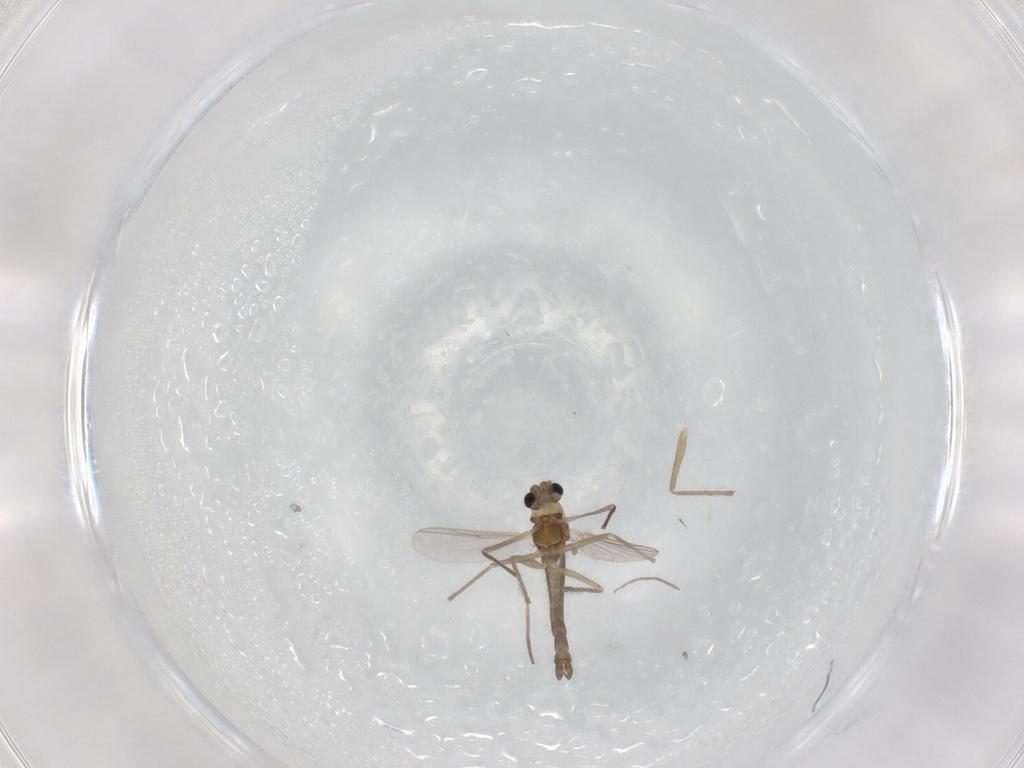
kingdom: Animalia
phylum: Arthropoda
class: Insecta
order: Diptera
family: Chironomidae
